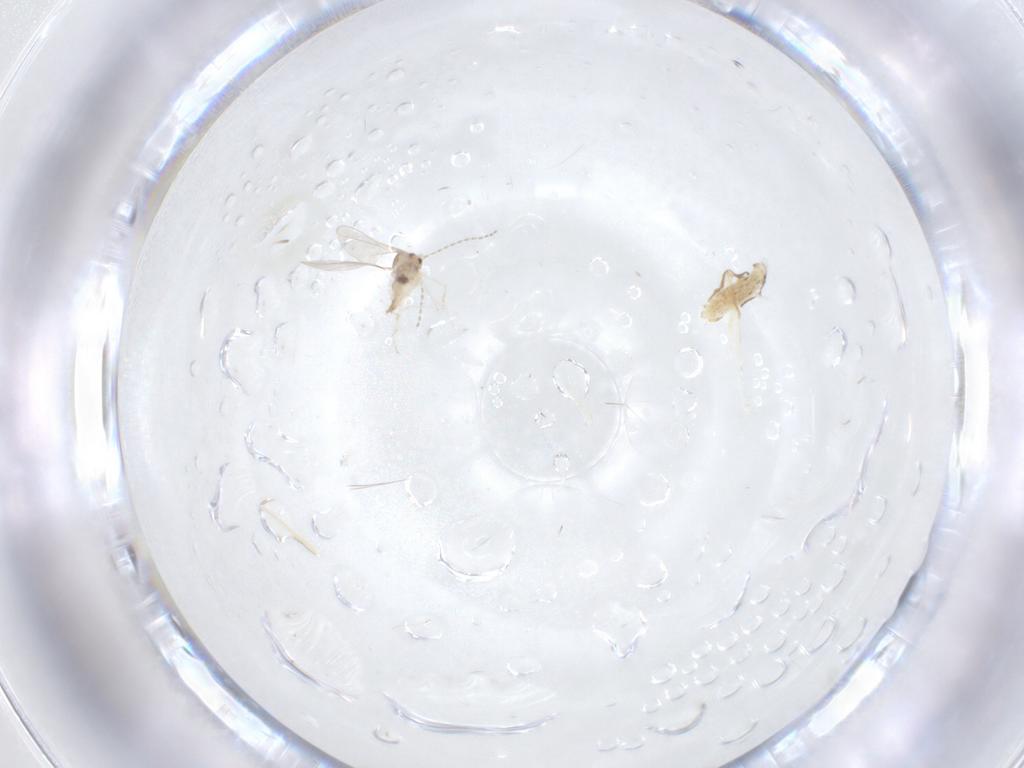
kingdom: Animalia
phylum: Arthropoda
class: Insecta
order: Diptera
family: Cecidomyiidae
